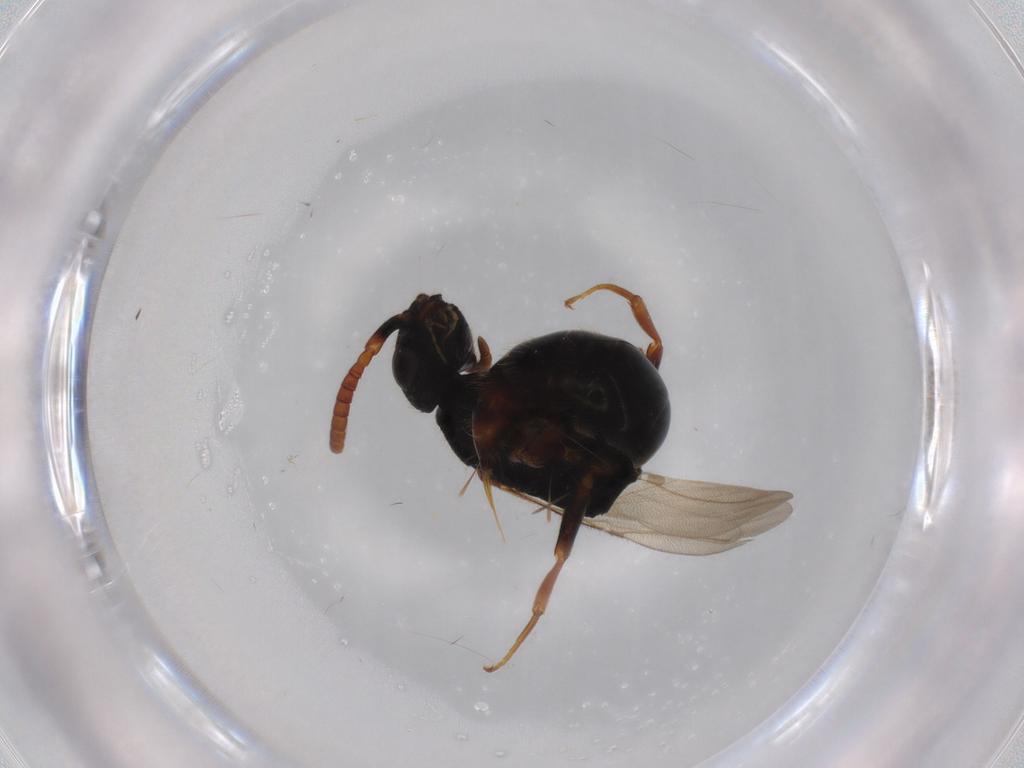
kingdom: Animalia
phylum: Arthropoda
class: Insecta
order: Hymenoptera
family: Bethylidae
